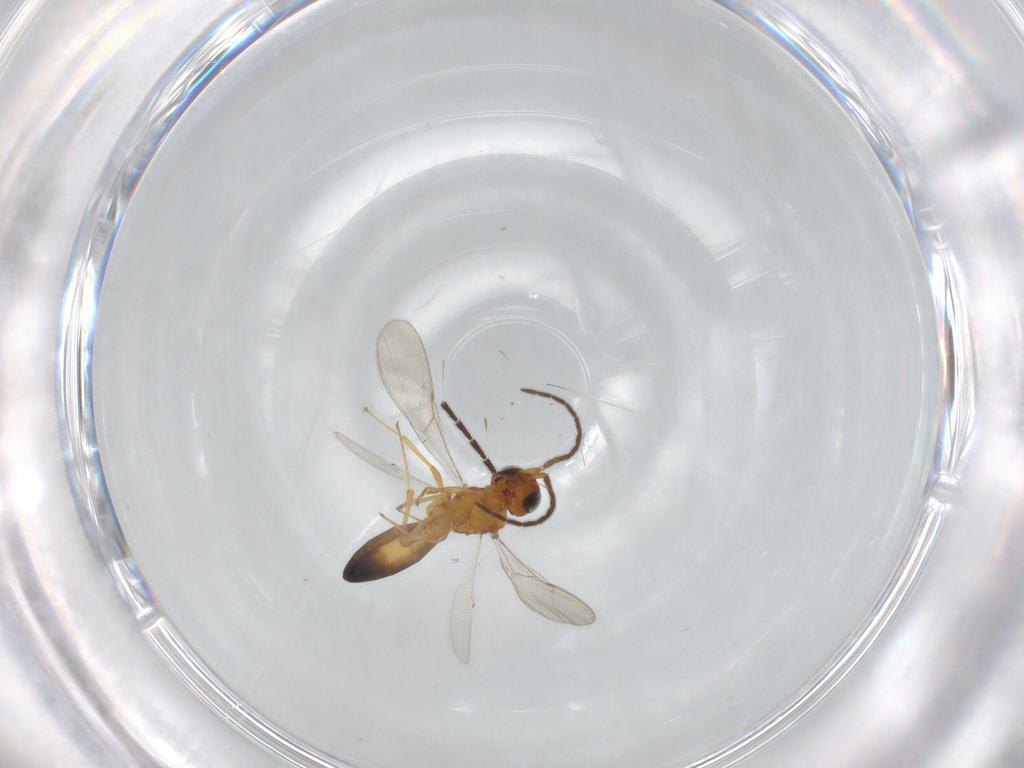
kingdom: Animalia
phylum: Arthropoda
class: Insecta
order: Hymenoptera
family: Scelionidae
